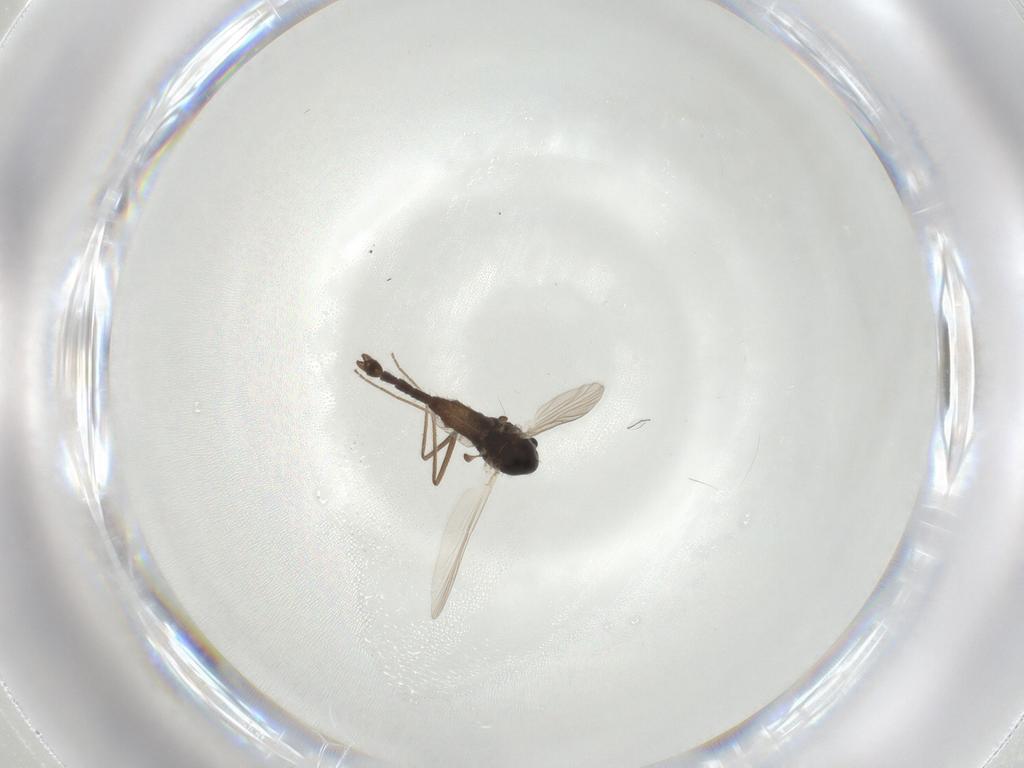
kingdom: Animalia
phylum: Arthropoda
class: Insecta
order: Diptera
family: Chironomidae
